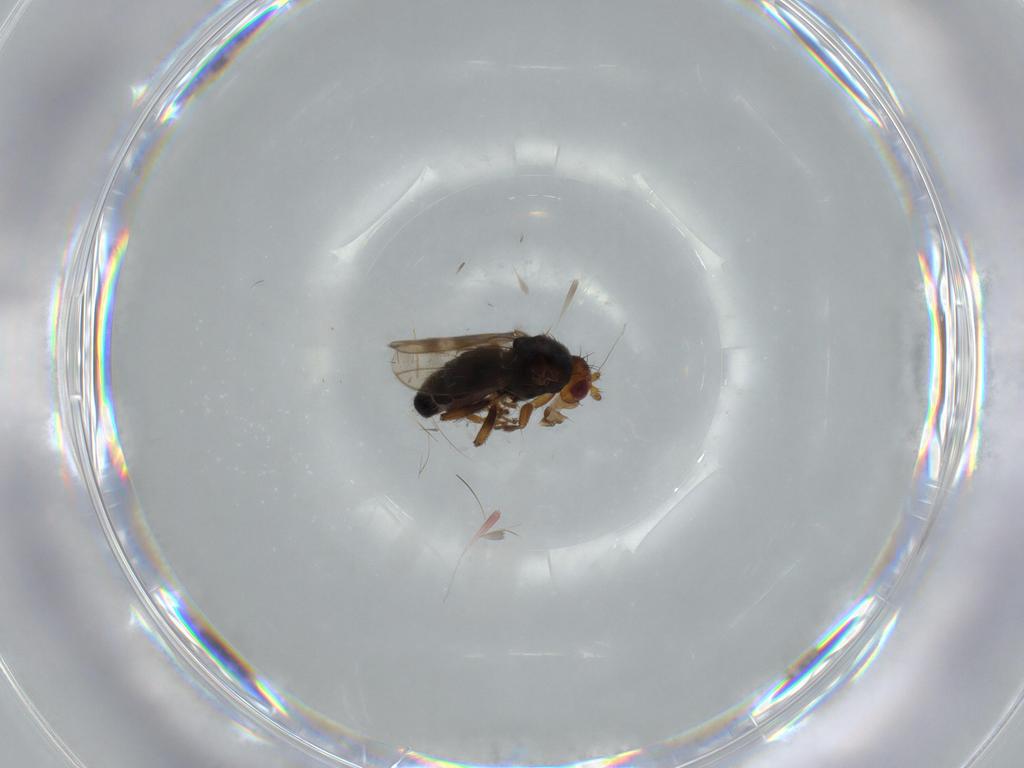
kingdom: Animalia
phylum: Arthropoda
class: Insecta
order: Diptera
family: Sphaeroceridae
